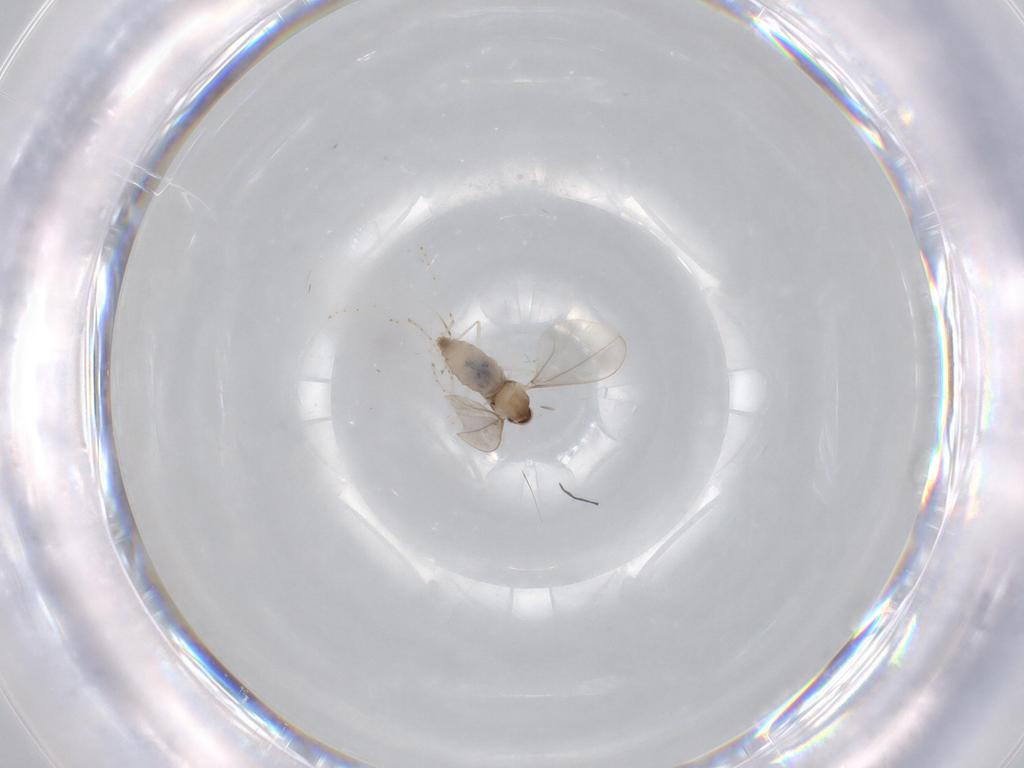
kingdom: Animalia
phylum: Arthropoda
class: Insecta
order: Diptera
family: Cecidomyiidae
